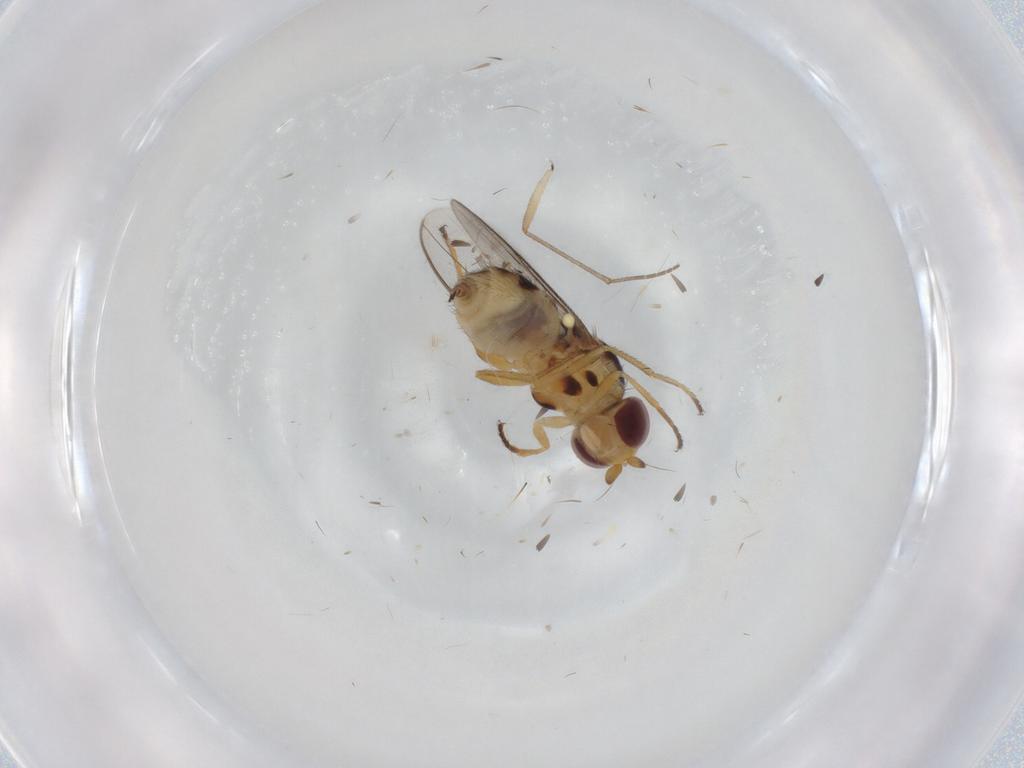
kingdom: Animalia
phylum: Arthropoda
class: Insecta
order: Diptera
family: Chloropidae
